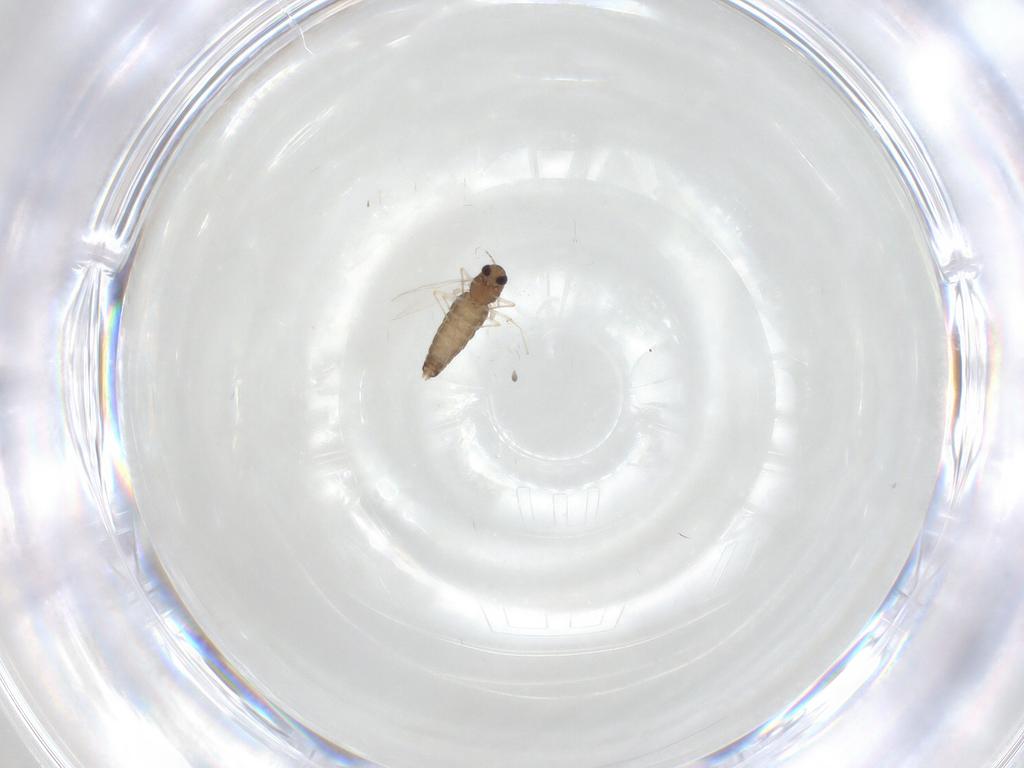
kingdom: Animalia
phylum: Arthropoda
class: Insecta
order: Diptera
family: Chironomidae
